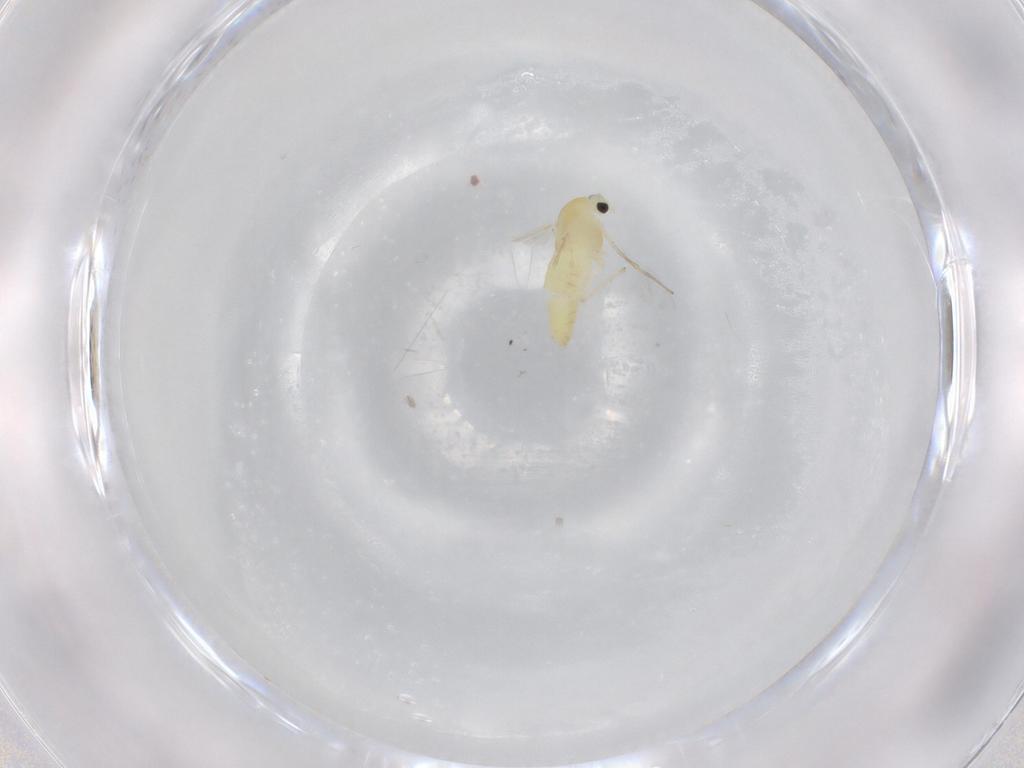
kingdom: Animalia
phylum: Arthropoda
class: Insecta
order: Diptera
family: Chironomidae
